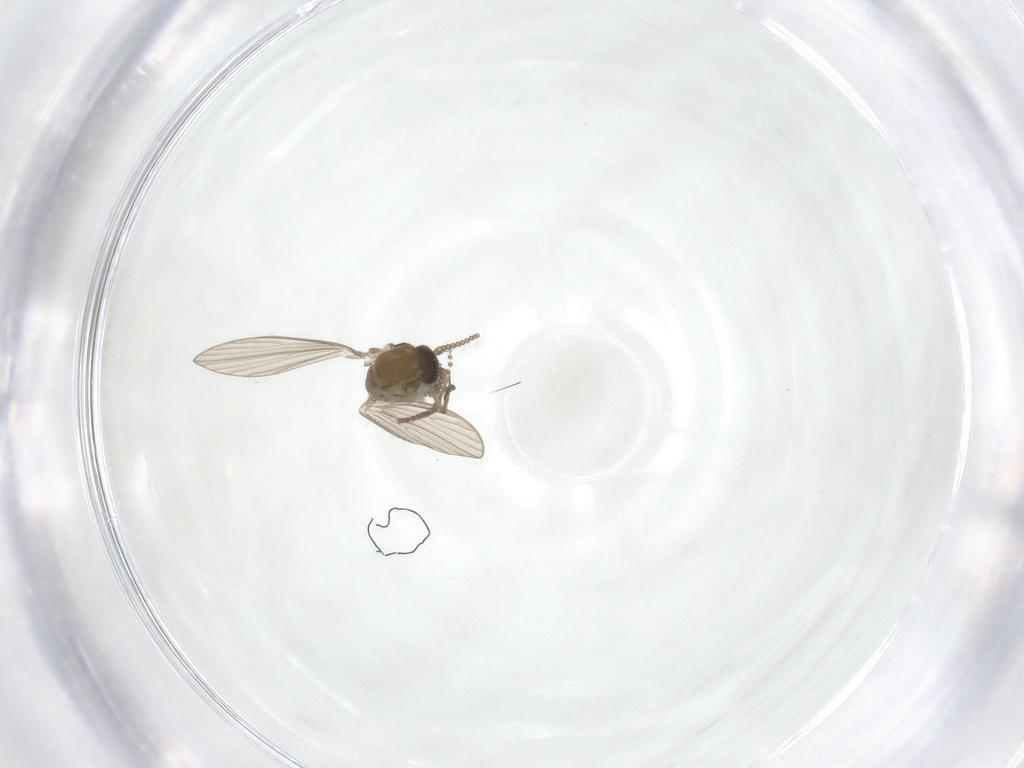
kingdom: Animalia
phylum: Arthropoda
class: Insecta
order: Diptera
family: Psychodidae
